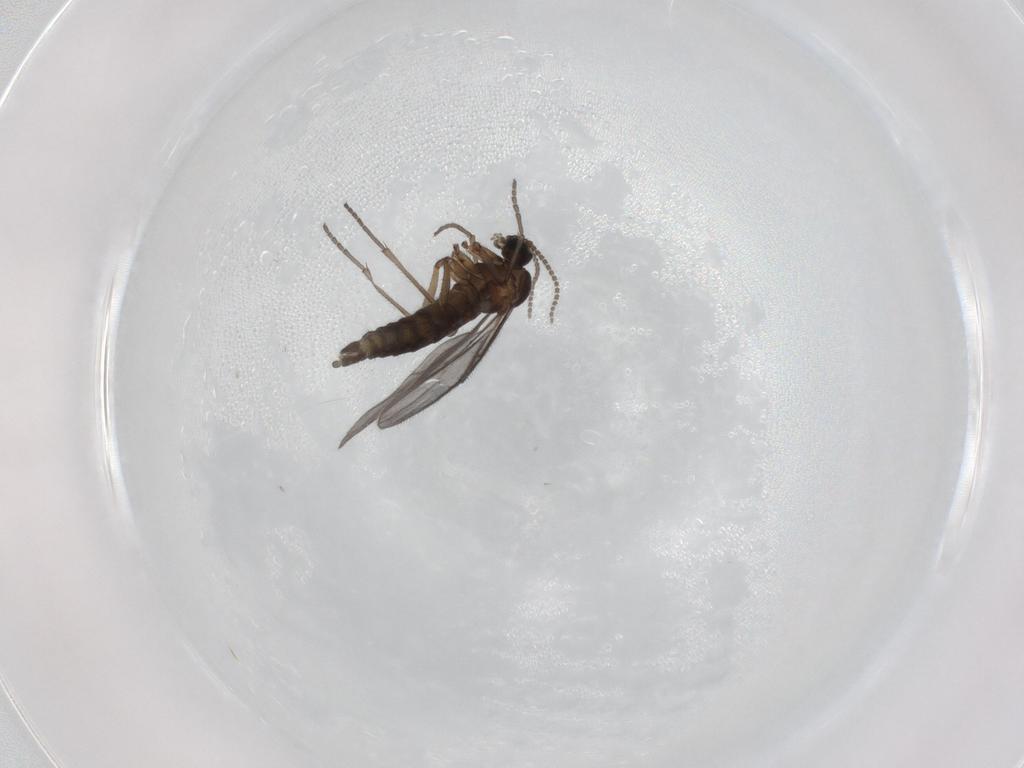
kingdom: Animalia
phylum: Arthropoda
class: Insecta
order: Diptera
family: Sciaridae
